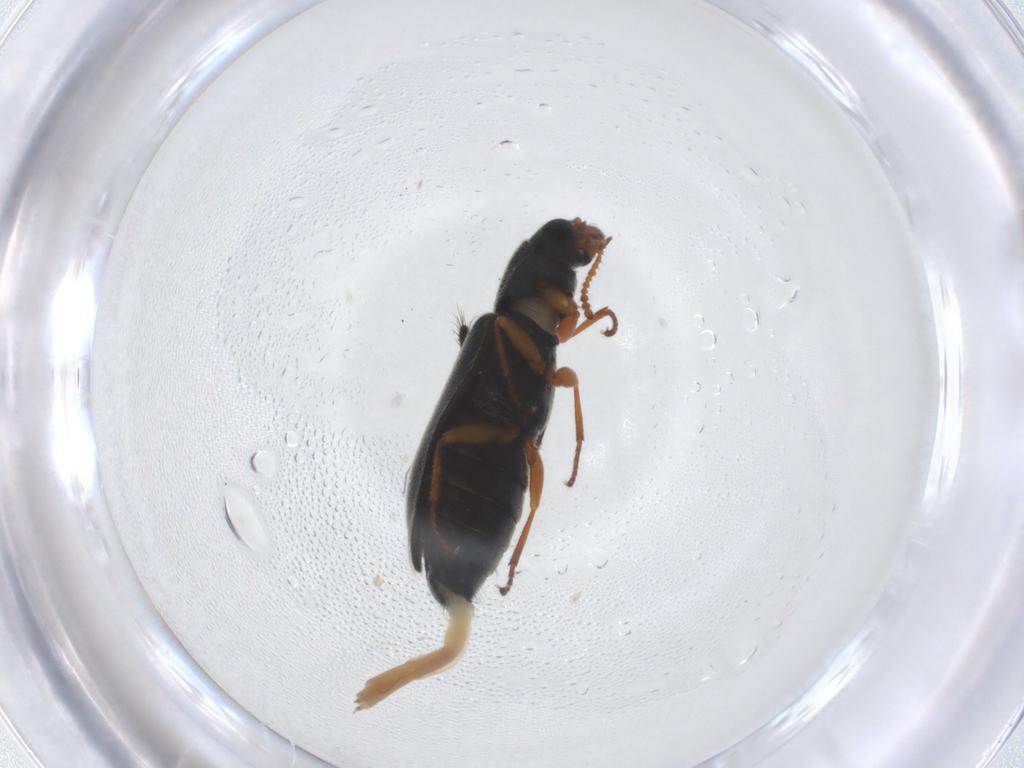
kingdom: Animalia
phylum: Arthropoda
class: Insecta
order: Coleoptera
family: Melyridae
